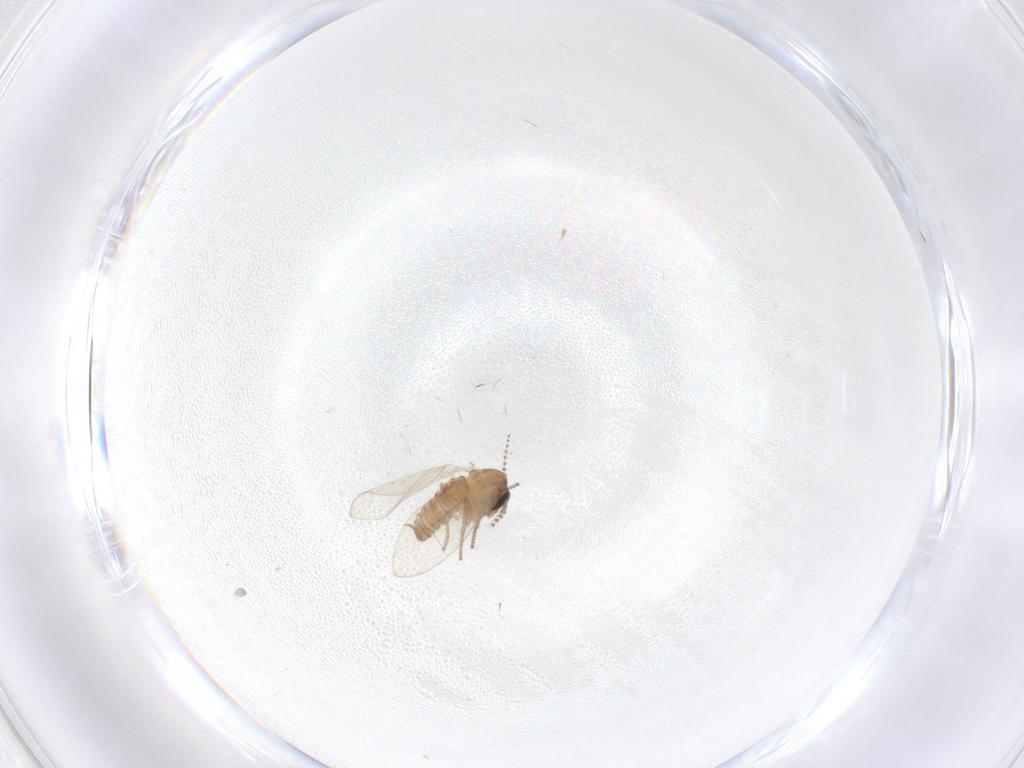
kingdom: Animalia
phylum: Arthropoda
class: Insecta
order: Diptera
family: Psychodidae
